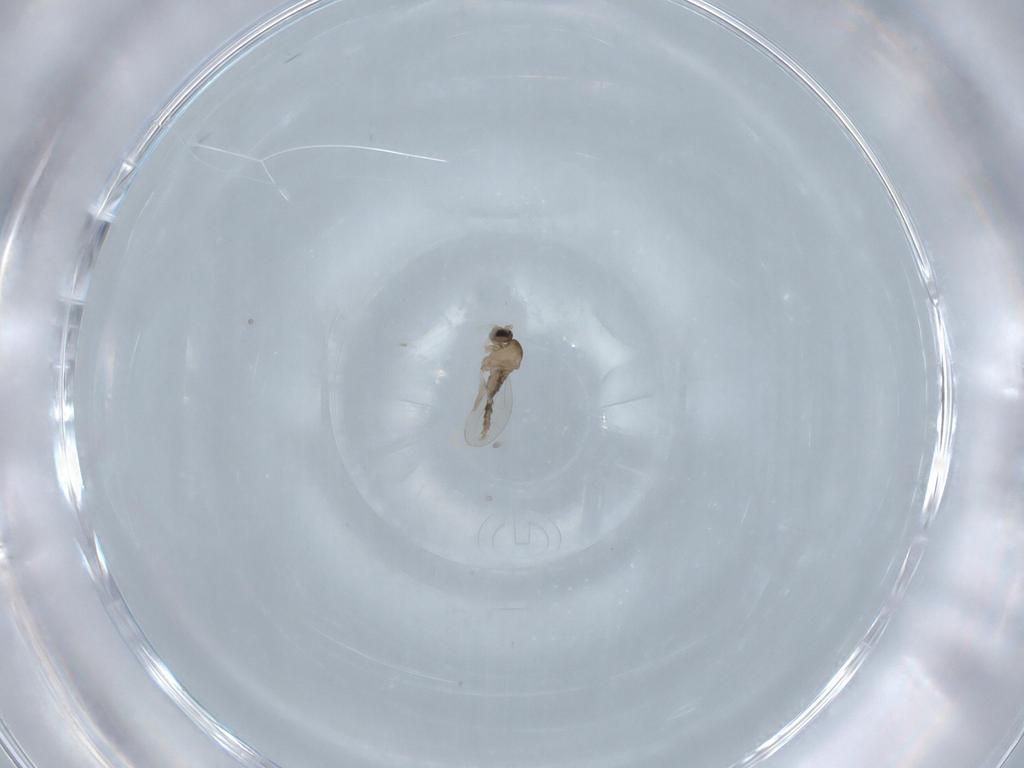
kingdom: Animalia
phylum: Arthropoda
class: Insecta
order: Diptera
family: Cecidomyiidae
